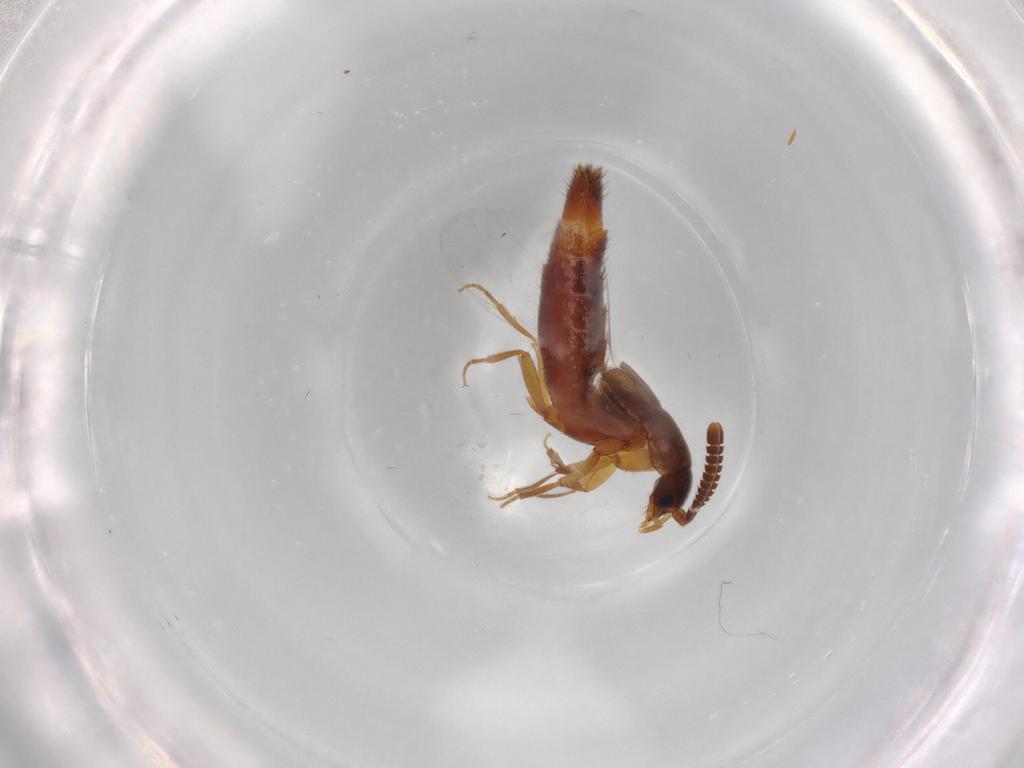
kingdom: Animalia
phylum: Arthropoda
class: Insecta
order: Coleoptera
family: Staphylinidae
